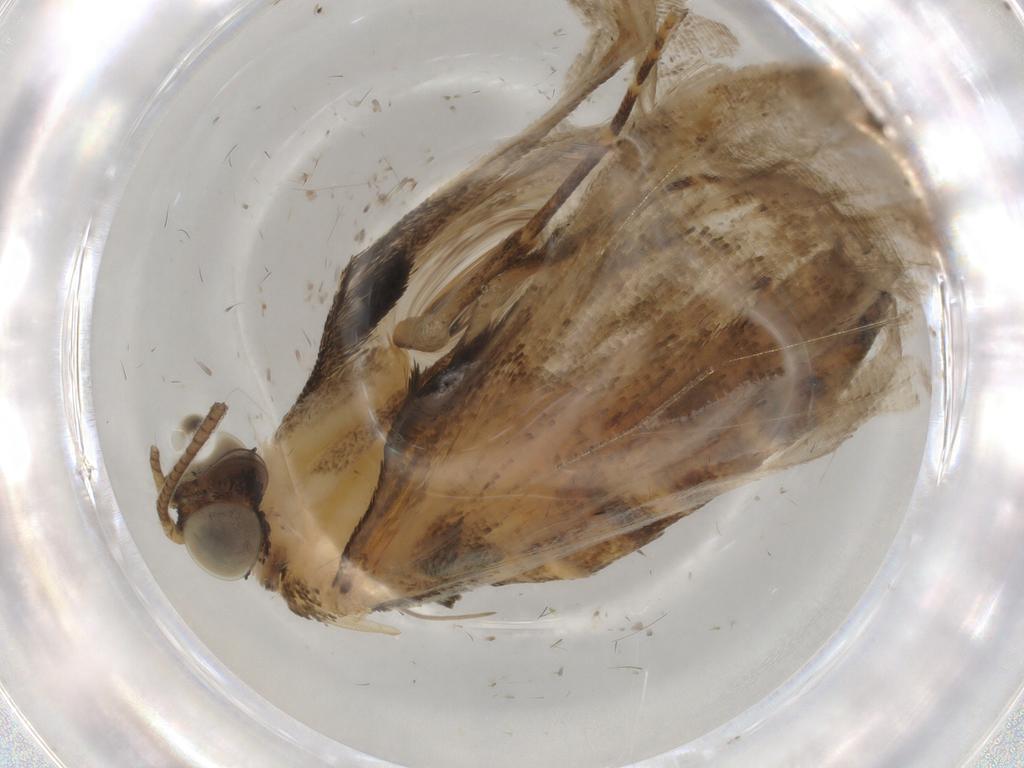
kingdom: Animalia
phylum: Arthropoda
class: Insecta
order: Lepidoptera
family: Geometridae
